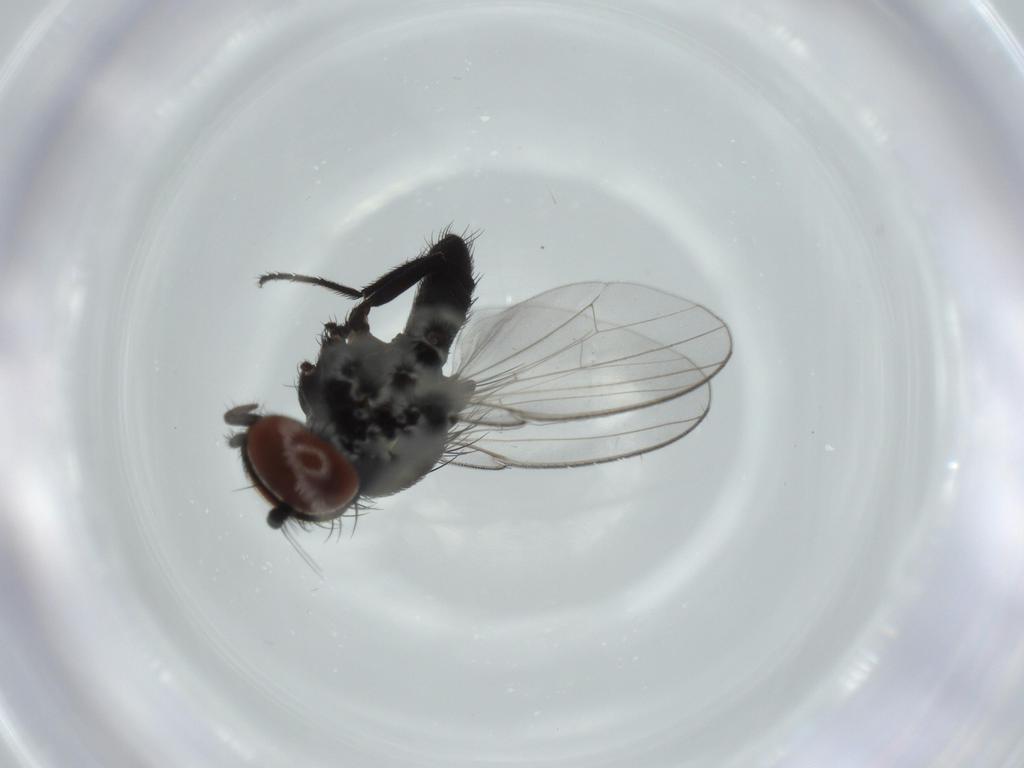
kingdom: Animalia
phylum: Arthropoda
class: Insecta
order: Diptera
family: Milichiidae
